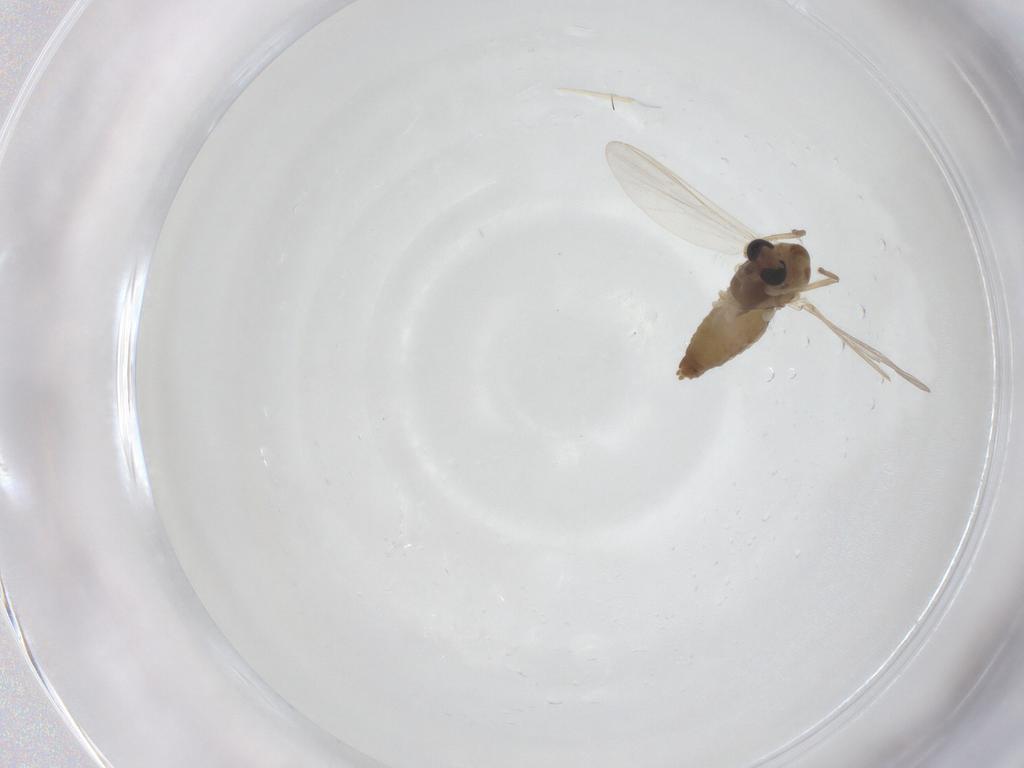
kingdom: Animalia
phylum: Arthropoda
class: Insecta
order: Diptera
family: Chironomidae
